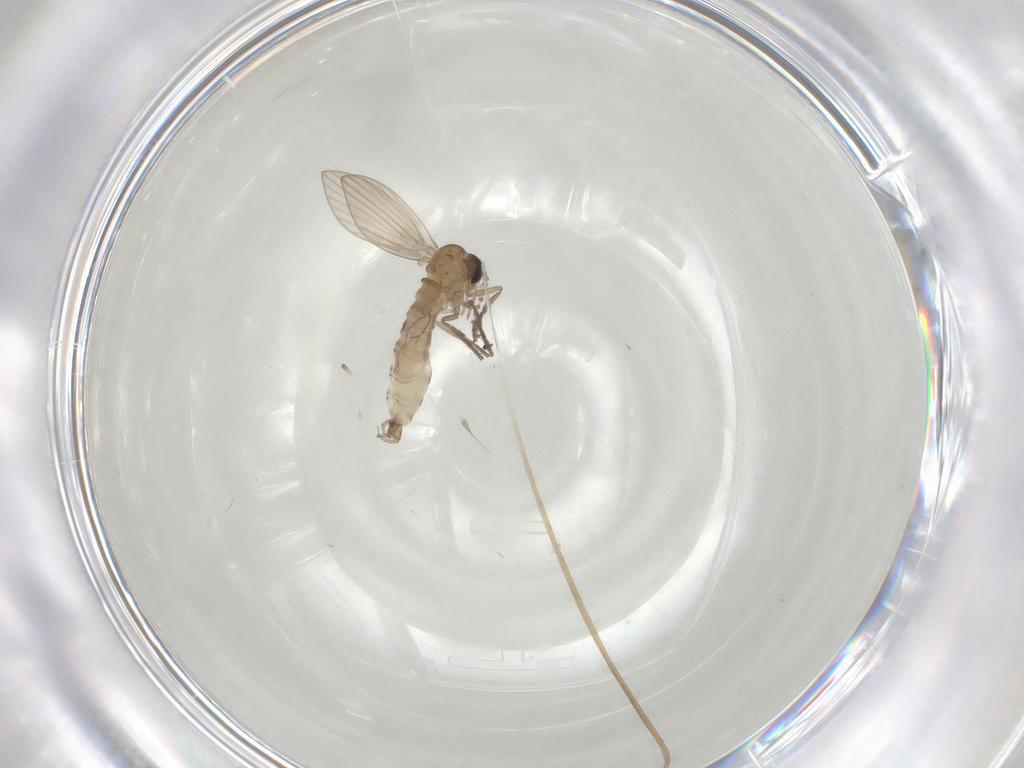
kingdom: Animalia
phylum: Arthropoda
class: Insecta
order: Diptera
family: Psychodidae
